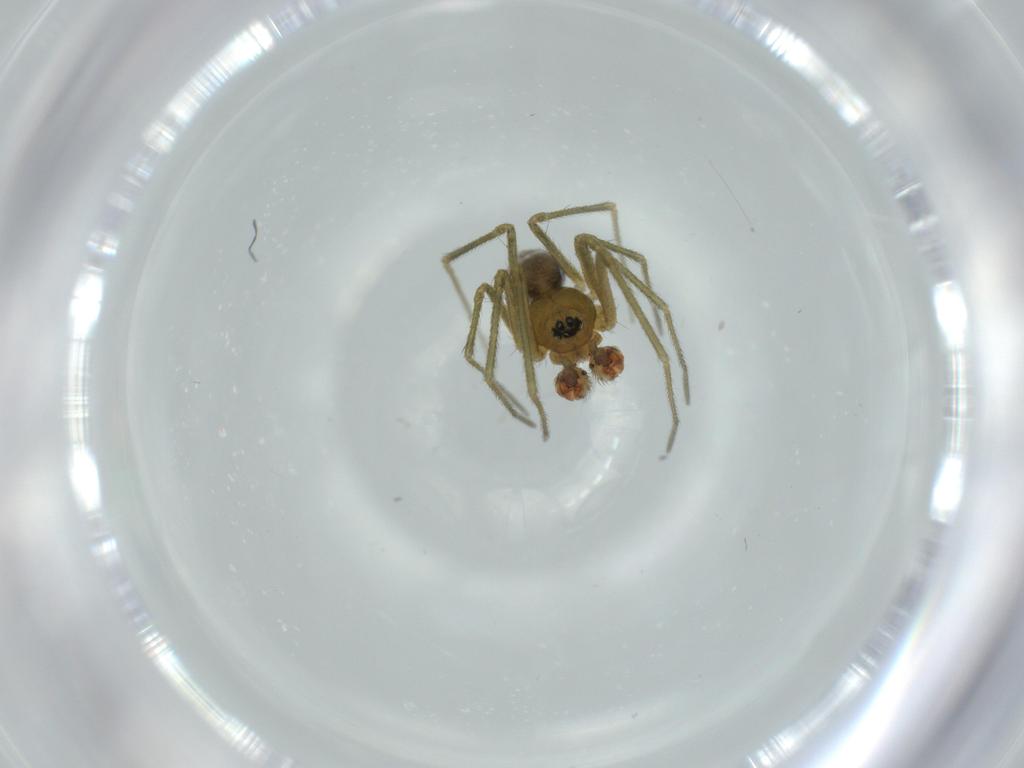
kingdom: Animalia
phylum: Arthropoda
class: Arachnida
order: Araneae
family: Linyphiidae
